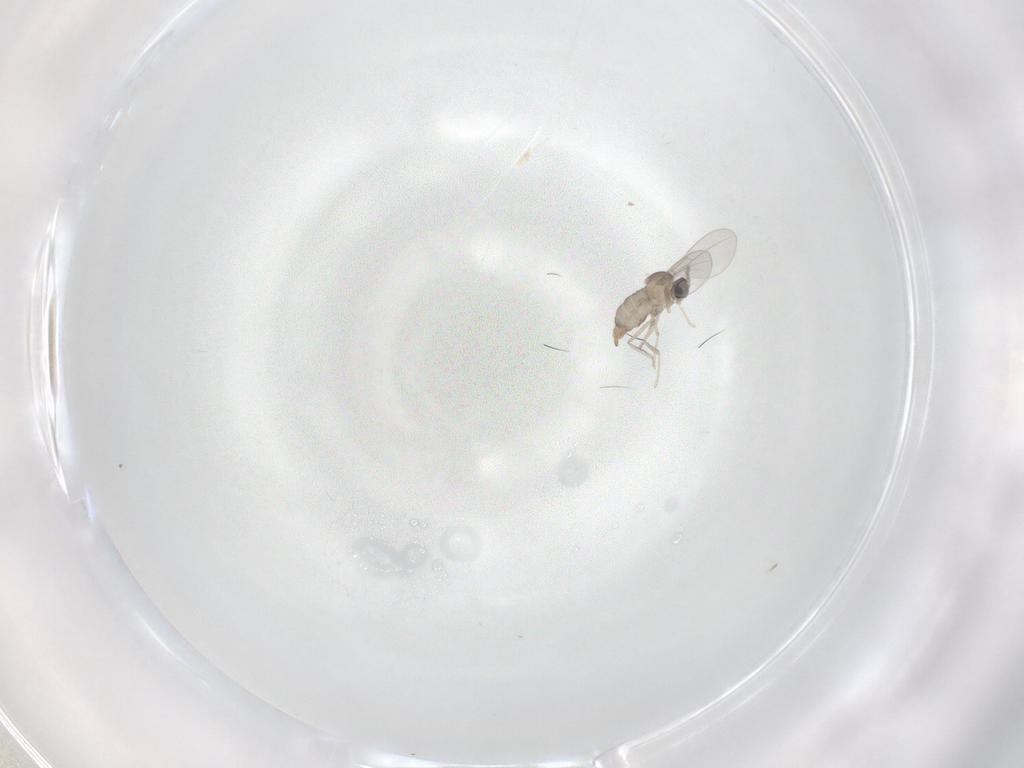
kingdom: Animalia
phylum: Arthropoda
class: Insecta
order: Diptera
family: Cecidomyiidae
